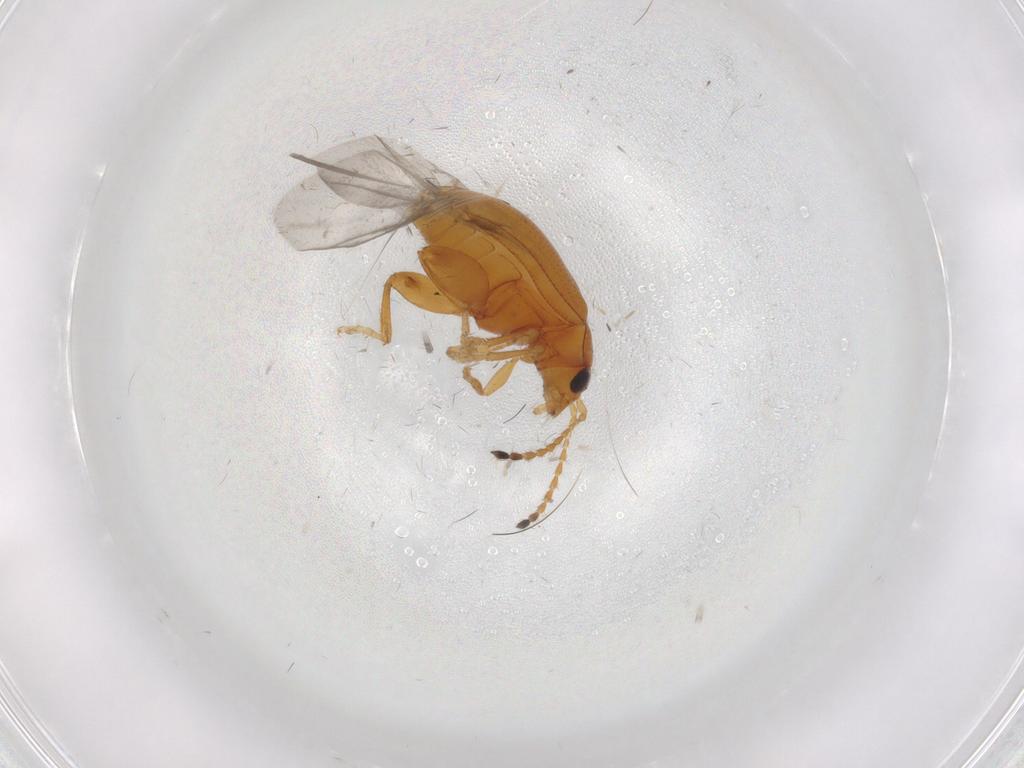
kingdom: Animalia
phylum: Arthropoda
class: Insecta
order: Coleoptera
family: Chrysomelidae
